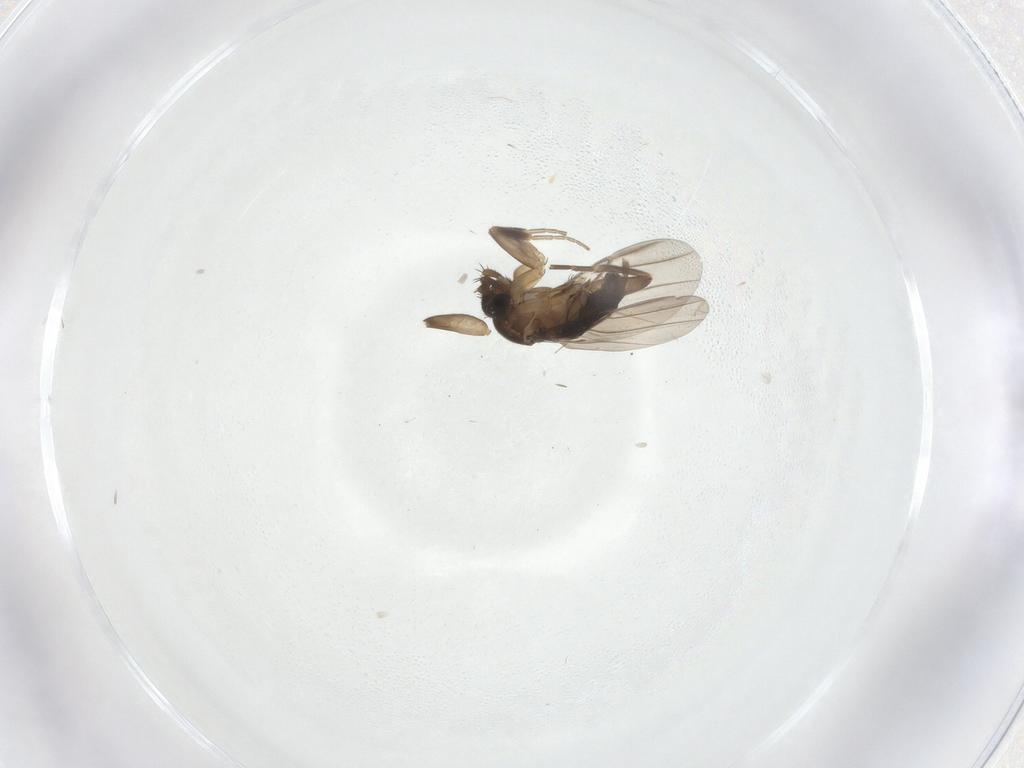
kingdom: Animalia
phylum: Arthropoda
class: Insecta
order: Diptera
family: Phoridae
